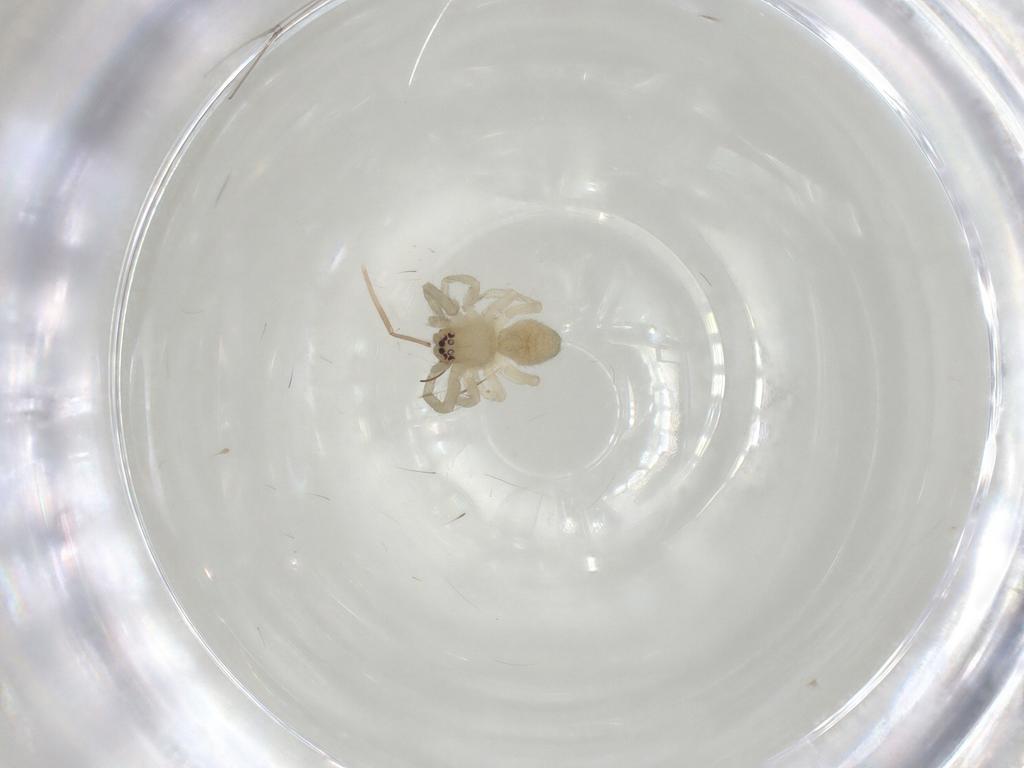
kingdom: Animalia
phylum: Arthropoda
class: Arachnida
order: Araneae
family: Trachelidae
